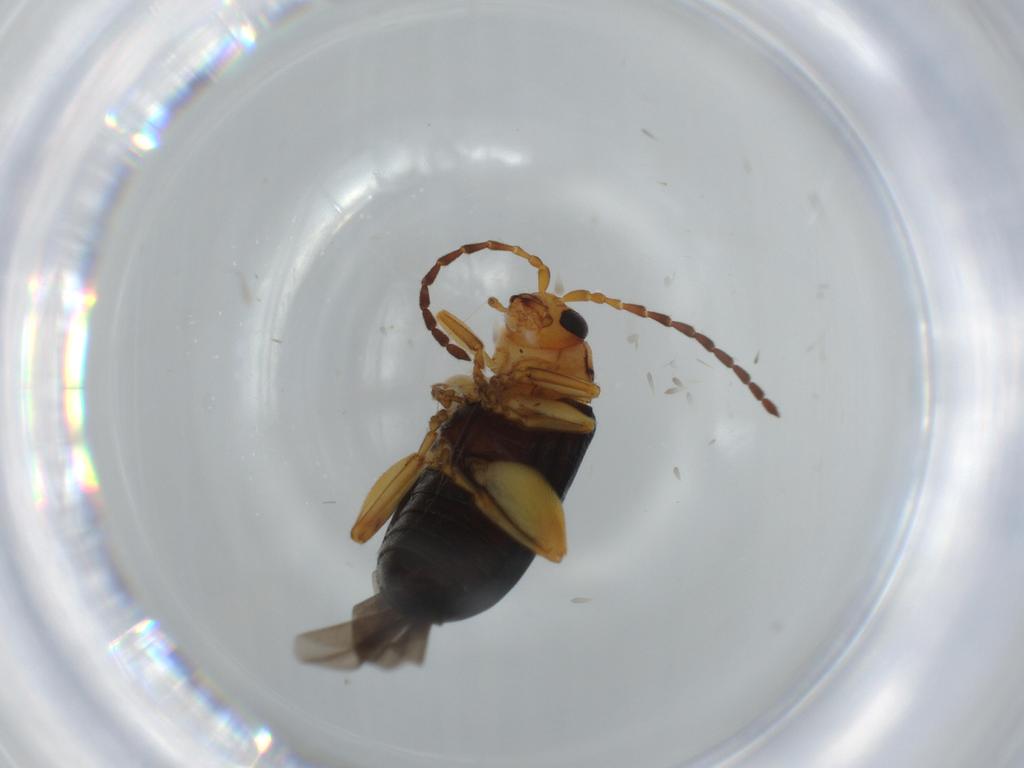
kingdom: Animalia
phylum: Arthropoda
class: Insecta
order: Coleoptera
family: Chrysomelidae
